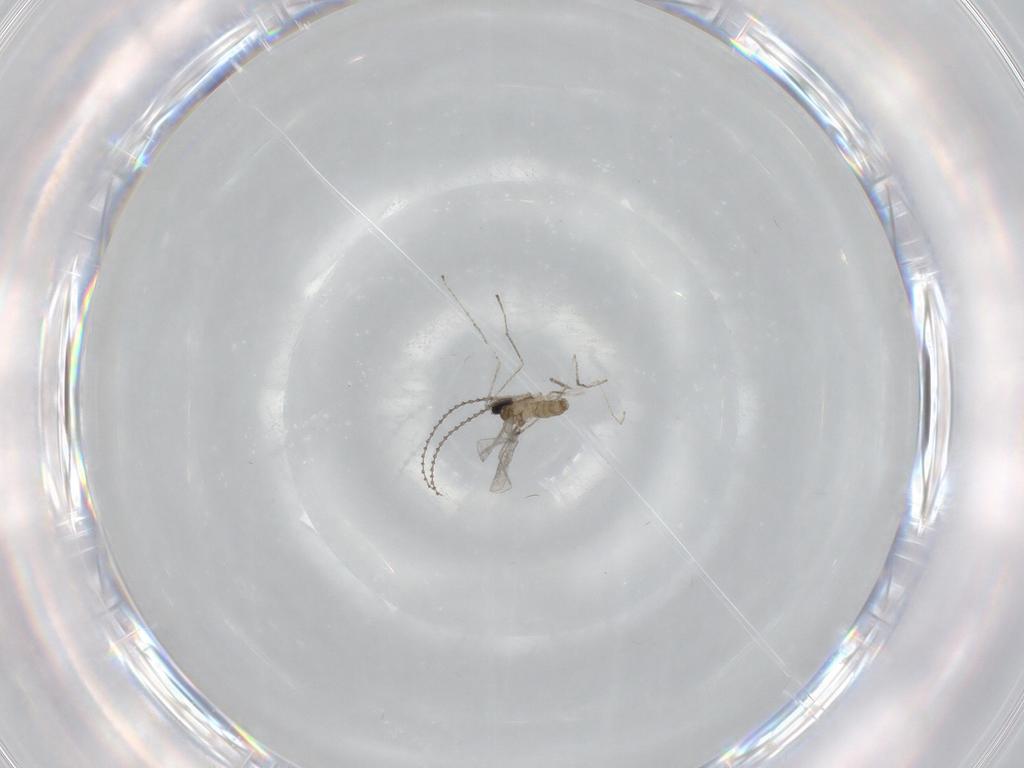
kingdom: Animalia
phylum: Arthropoda
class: Insecta
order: Diptera
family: Cecidomyiidae
